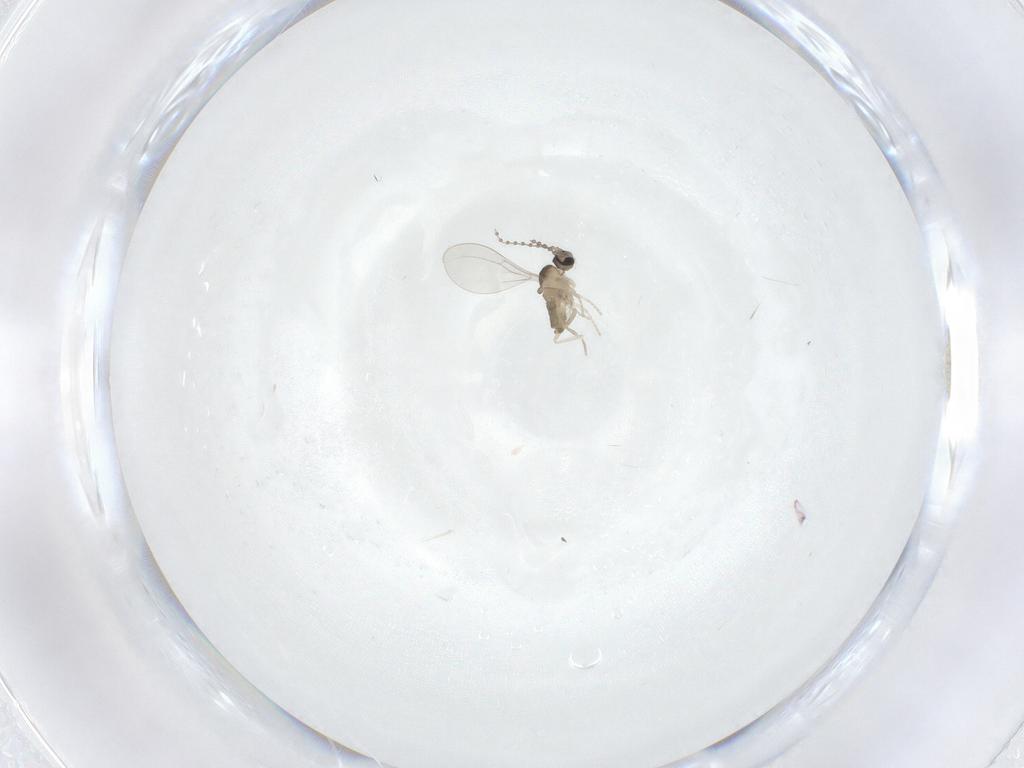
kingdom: Animalia
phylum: Arthropoda
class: Insecta
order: Diptera
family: Cecidomyiidae
